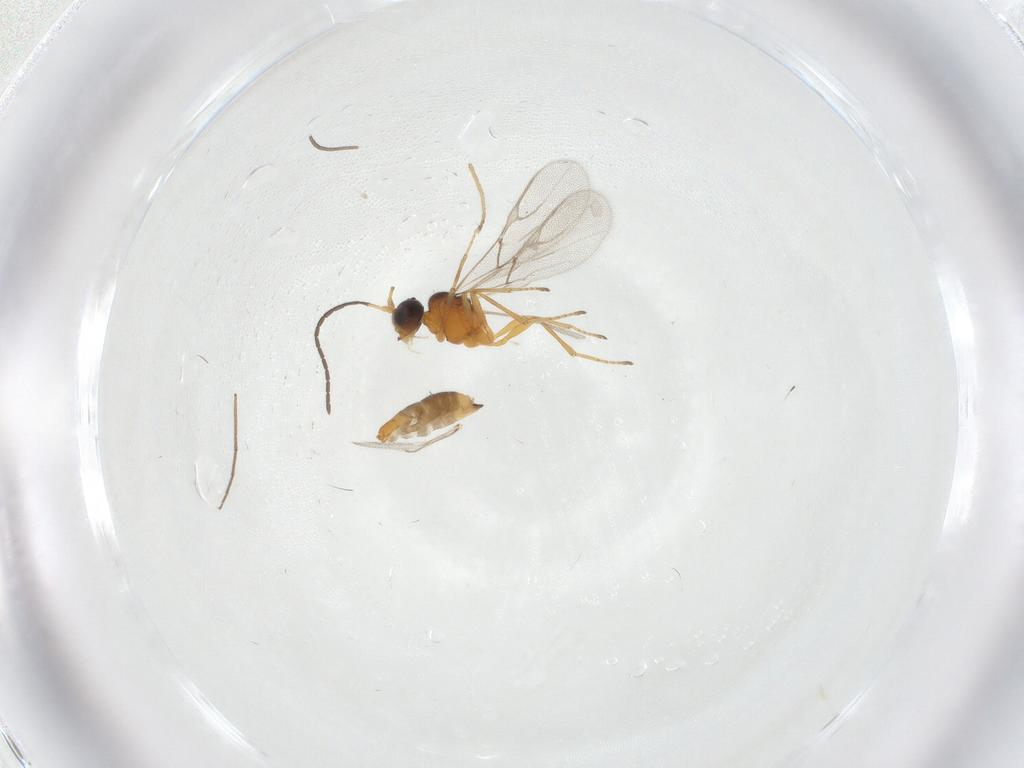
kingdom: Animalia
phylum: Arthropoda
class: Insecta
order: Hymenoptera
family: Braconidae
